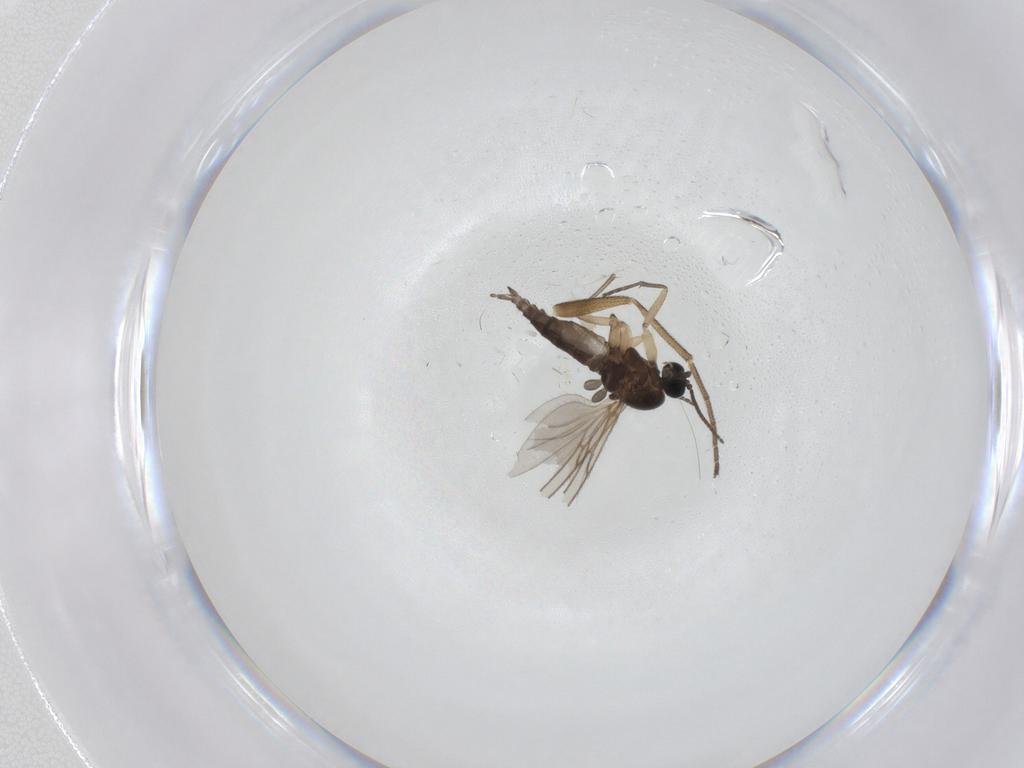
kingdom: Animalia
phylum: Arthropoda
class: Insecta
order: Diptera
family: Sciaridae
